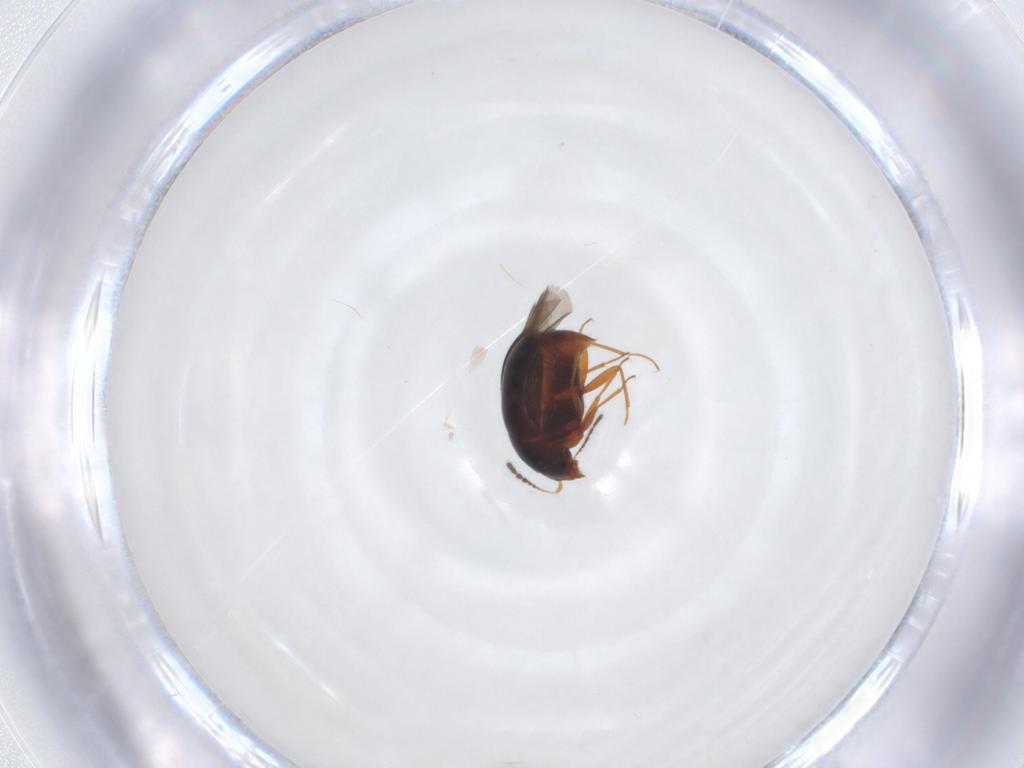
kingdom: Animalia
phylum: Arthropoda
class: Insecta
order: Coleoptera
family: Staphylinidae
